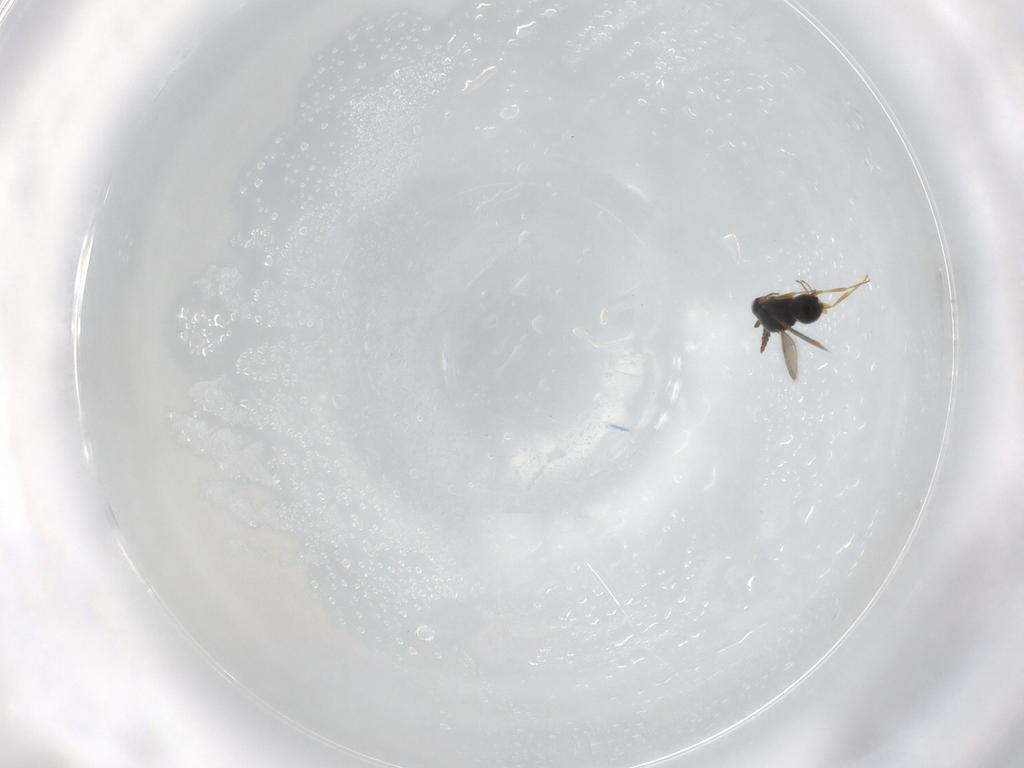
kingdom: Animalia
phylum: Arthropoda
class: Insecta
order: Hymenoptera
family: Scelionidae
